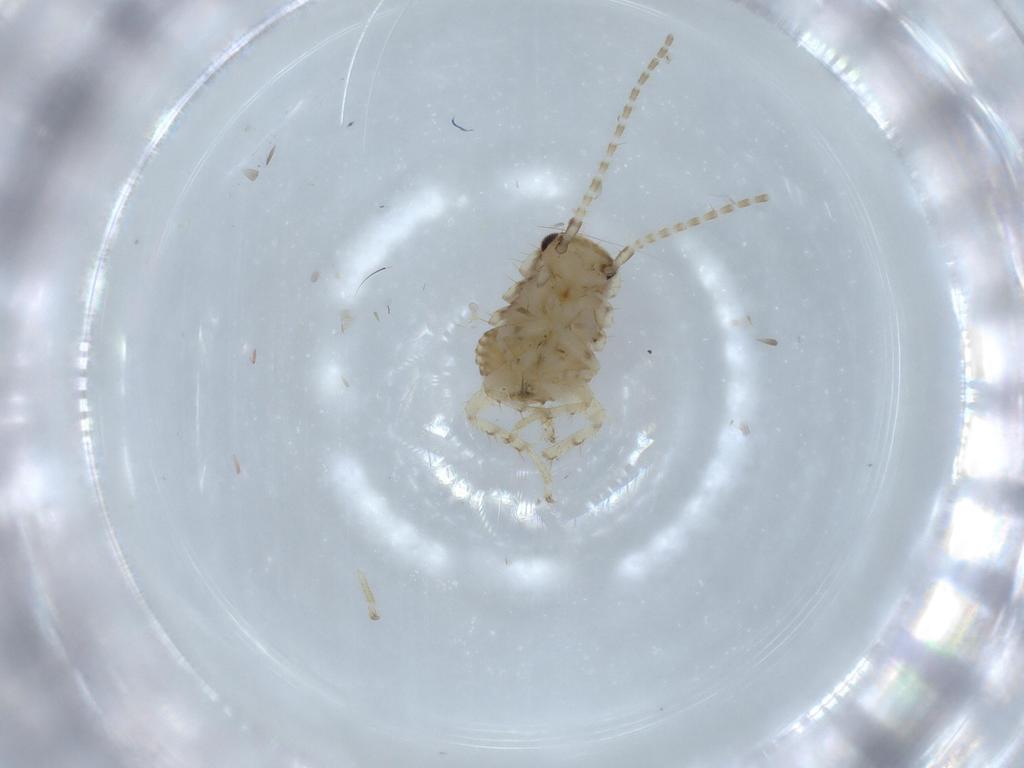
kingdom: Animalia
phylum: Arthropoda
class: Insecta
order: Blattodea
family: Ectobiidae
